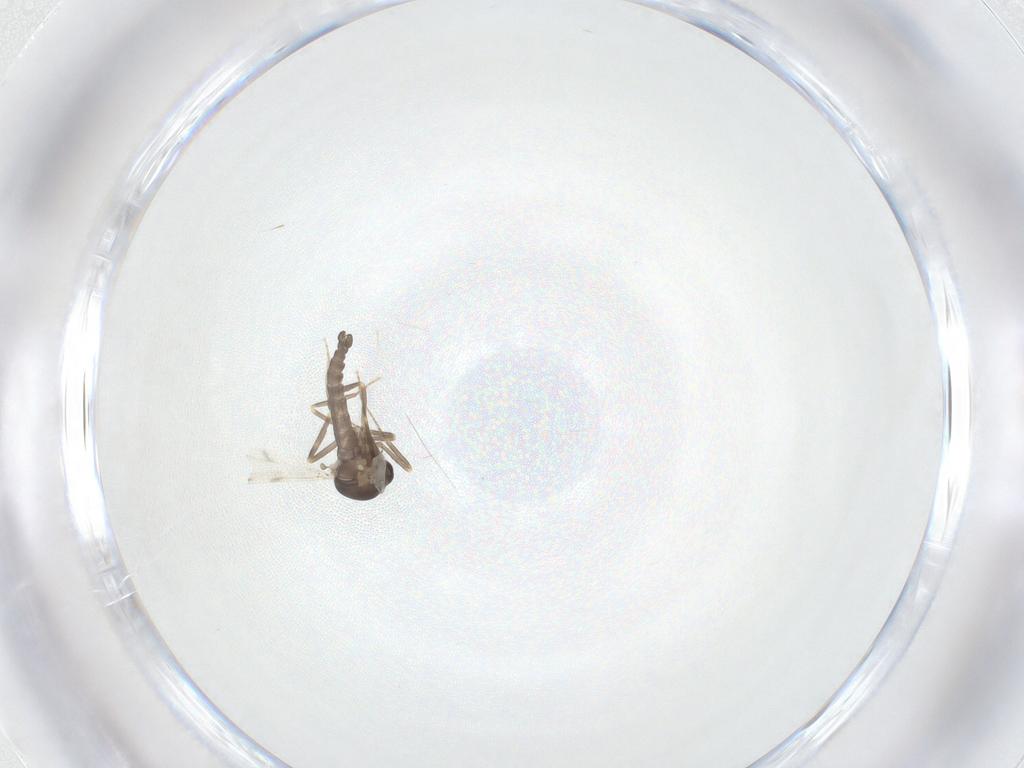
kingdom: Animalia
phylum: Arthropoda
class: Insecta
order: Diptera
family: Ceratopogonidae
